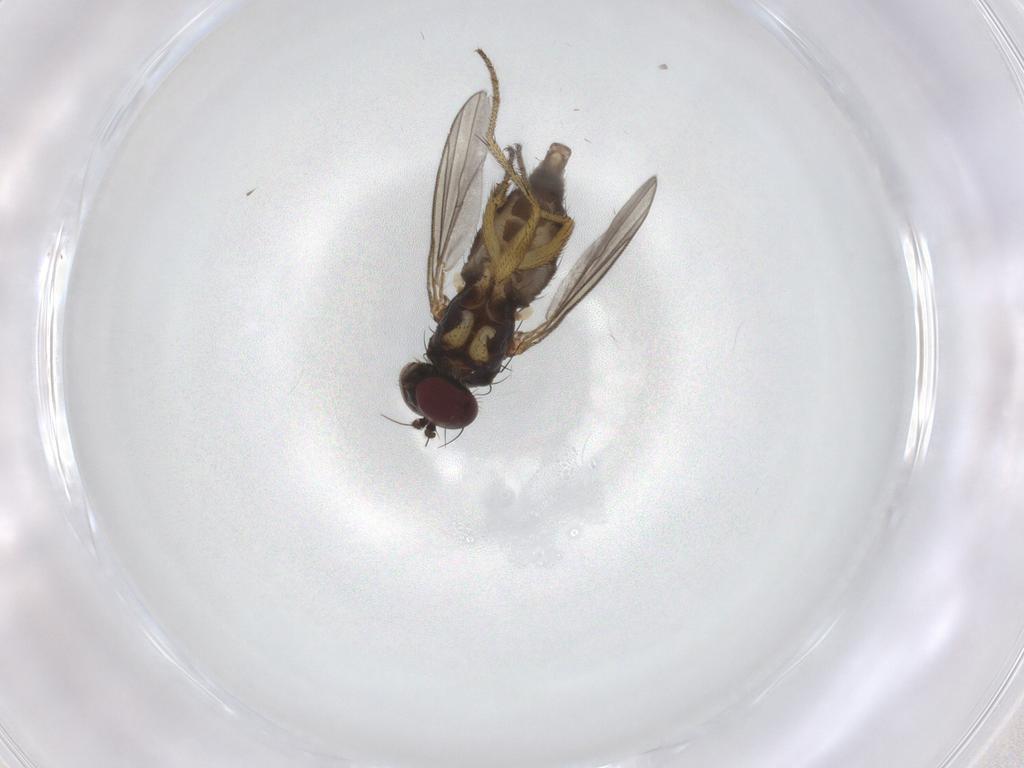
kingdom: Animalia
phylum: Arthropoda
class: Insecta
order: Diptera
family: Dolichopodidae
